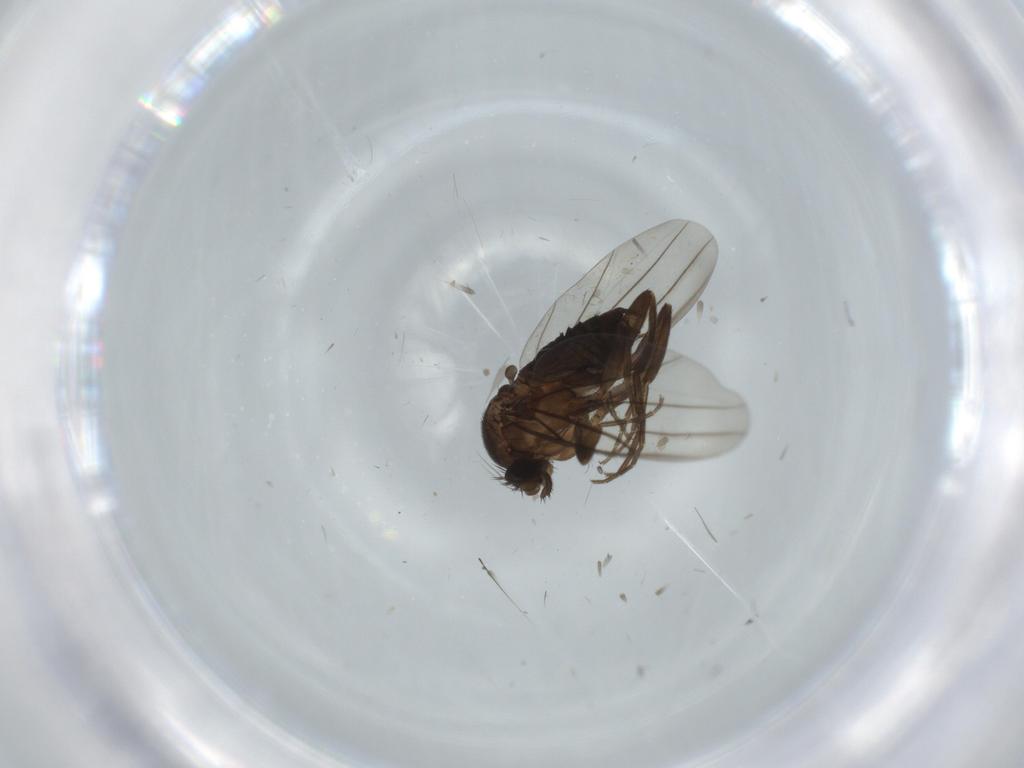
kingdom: Animalia
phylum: Arthropoda
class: Insecta
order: Diptera
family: Sciaridae
